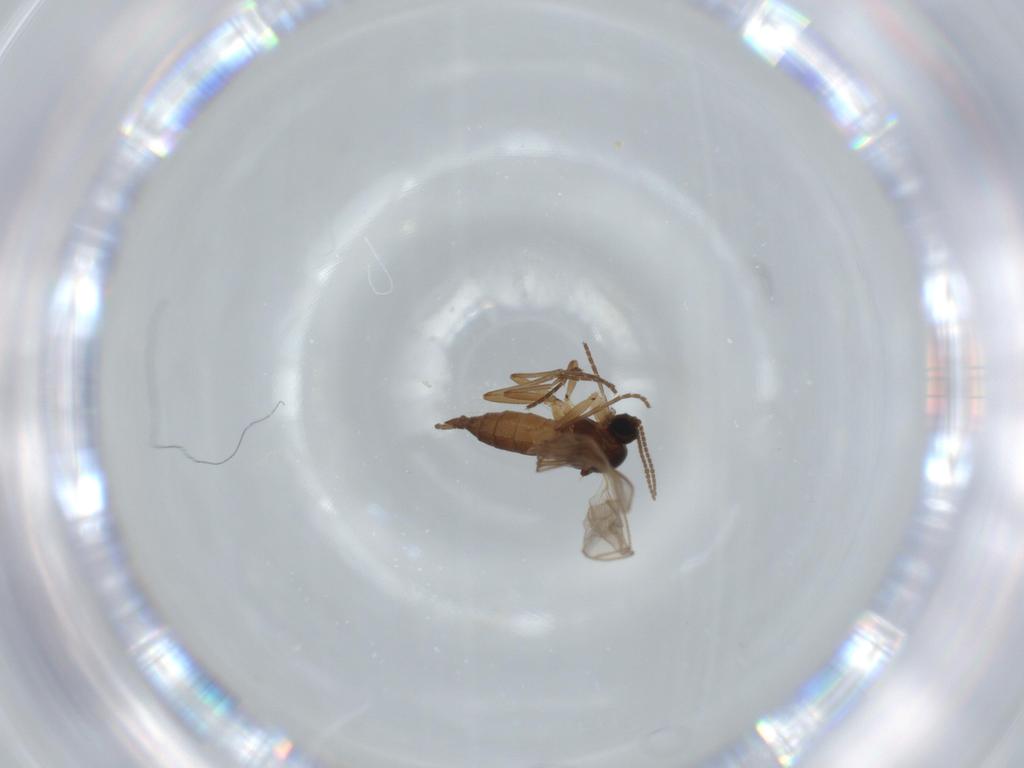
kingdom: Animalia
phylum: Arthropoda
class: Insecta
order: Diptera
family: Sciaridae
